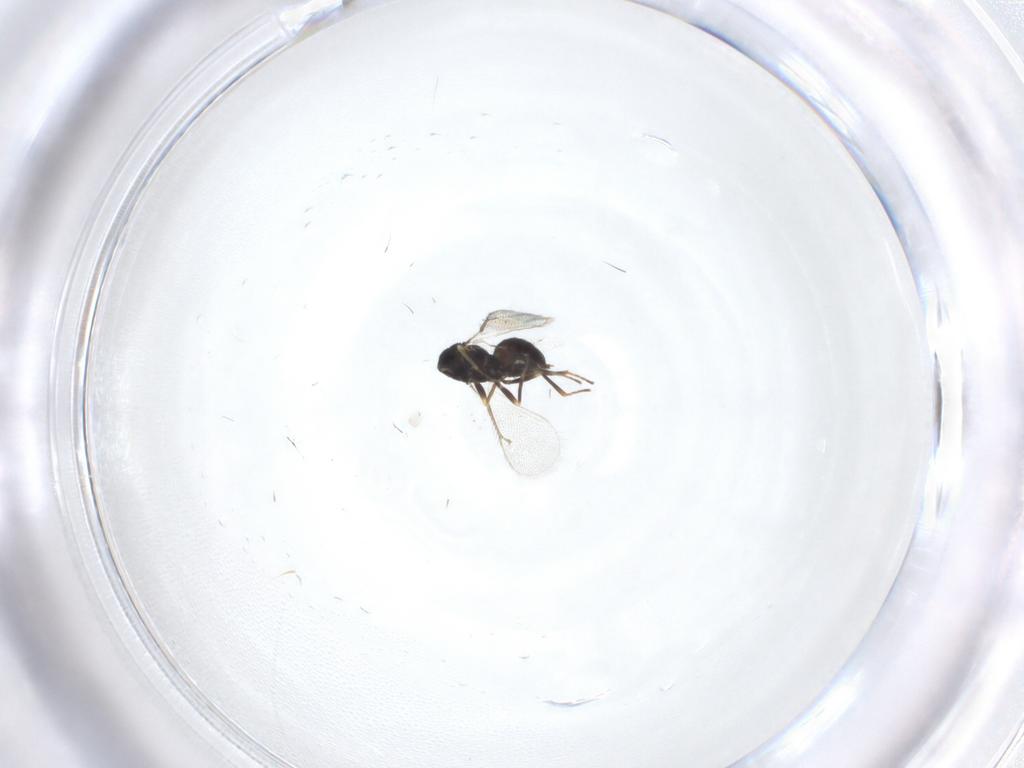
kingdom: Animalia
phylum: Arthropoda
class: Insecta
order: Hymenoptera
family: Eulophidae
